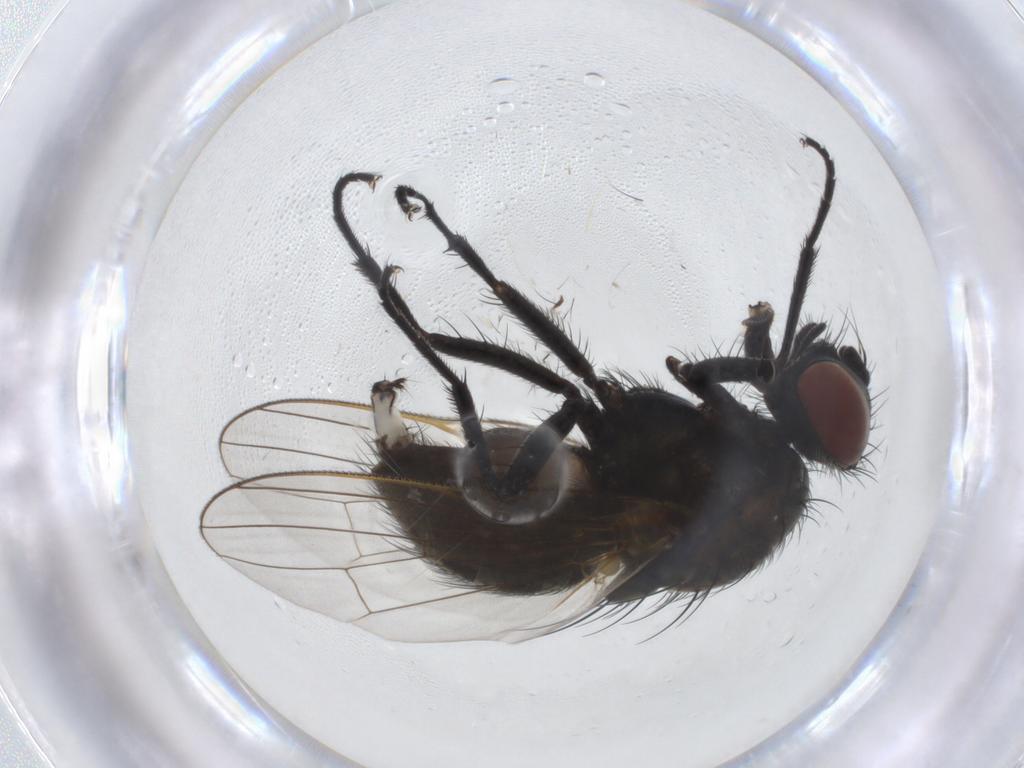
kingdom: Animalia
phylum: Arthropoda
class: Insecta
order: Diptera
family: Anthomyiidae
